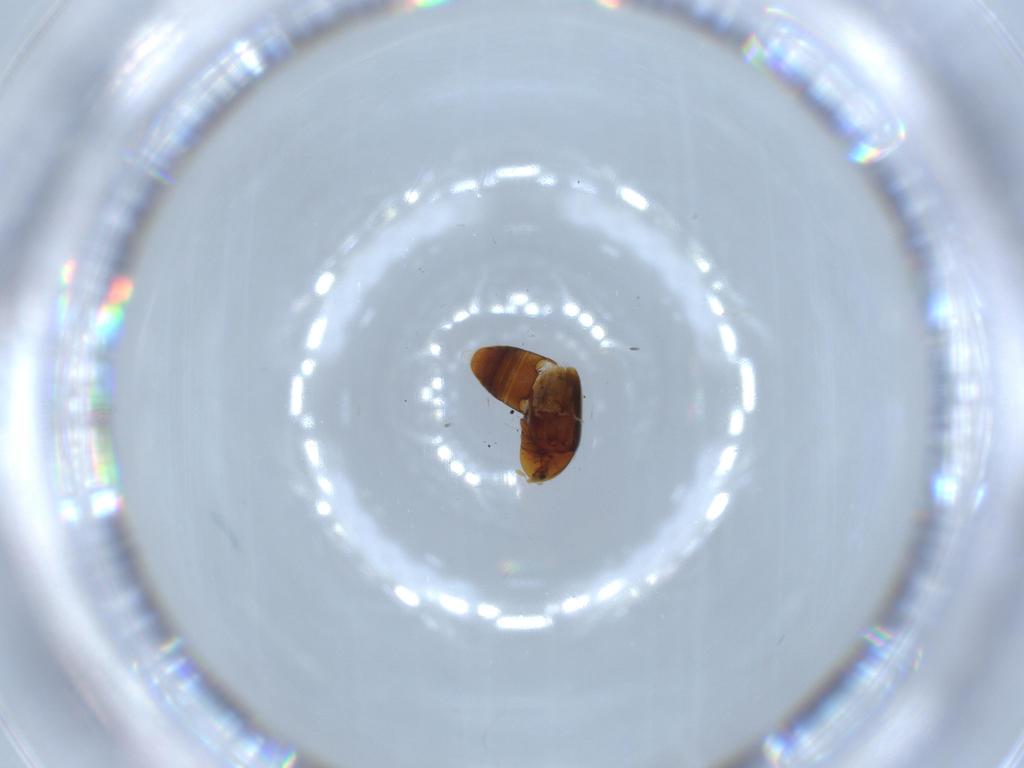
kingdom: Animalia
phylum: Arthropoda
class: Insecta
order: Coleoptera
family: Corylophidae
